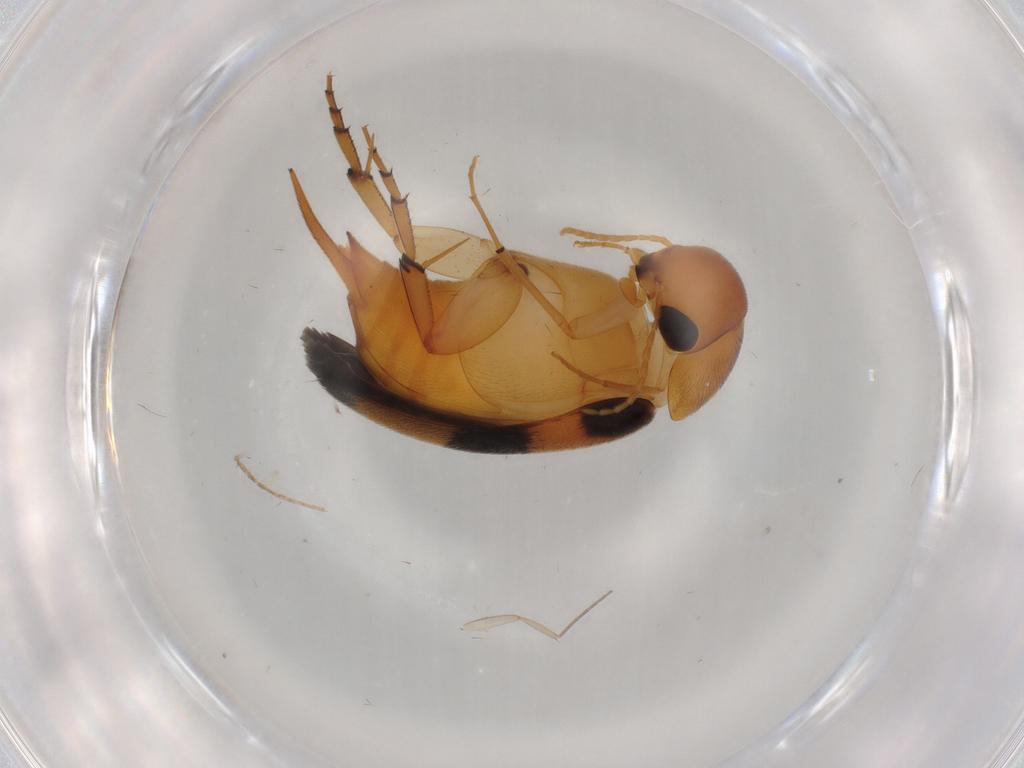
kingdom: Animalia
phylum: Arthropoda
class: Insecta
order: Coleoptera
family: Mordellidae
